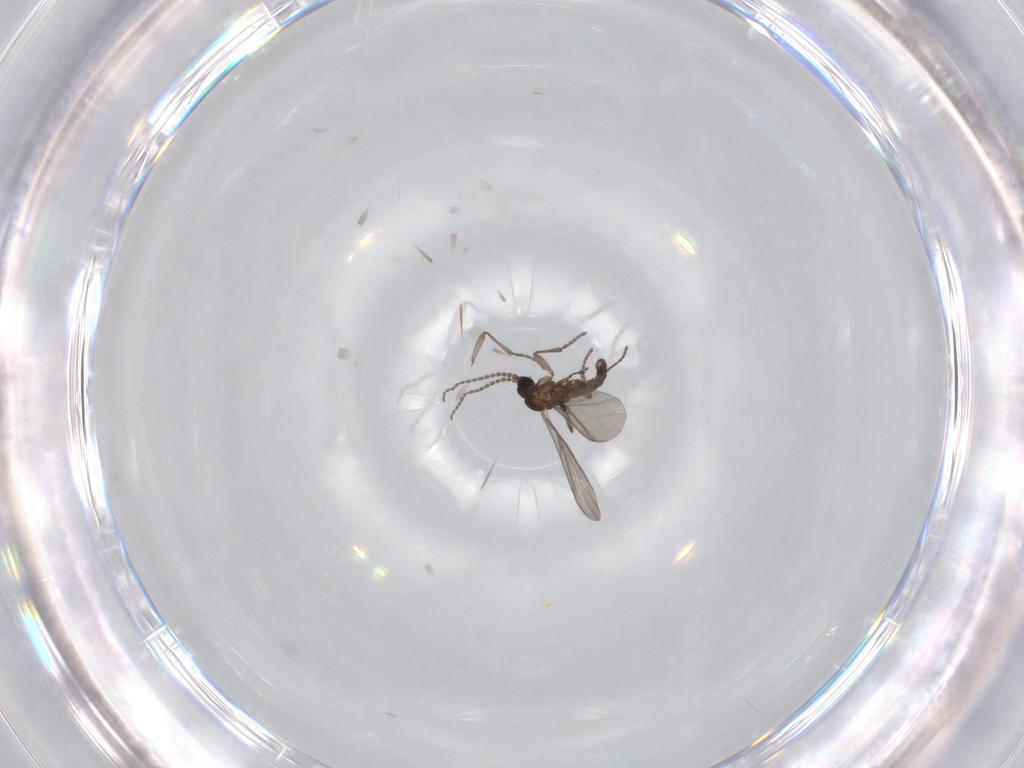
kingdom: Animalia
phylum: Arthropoda
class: Insecta
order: Diptera
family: Cecidomyiidae
